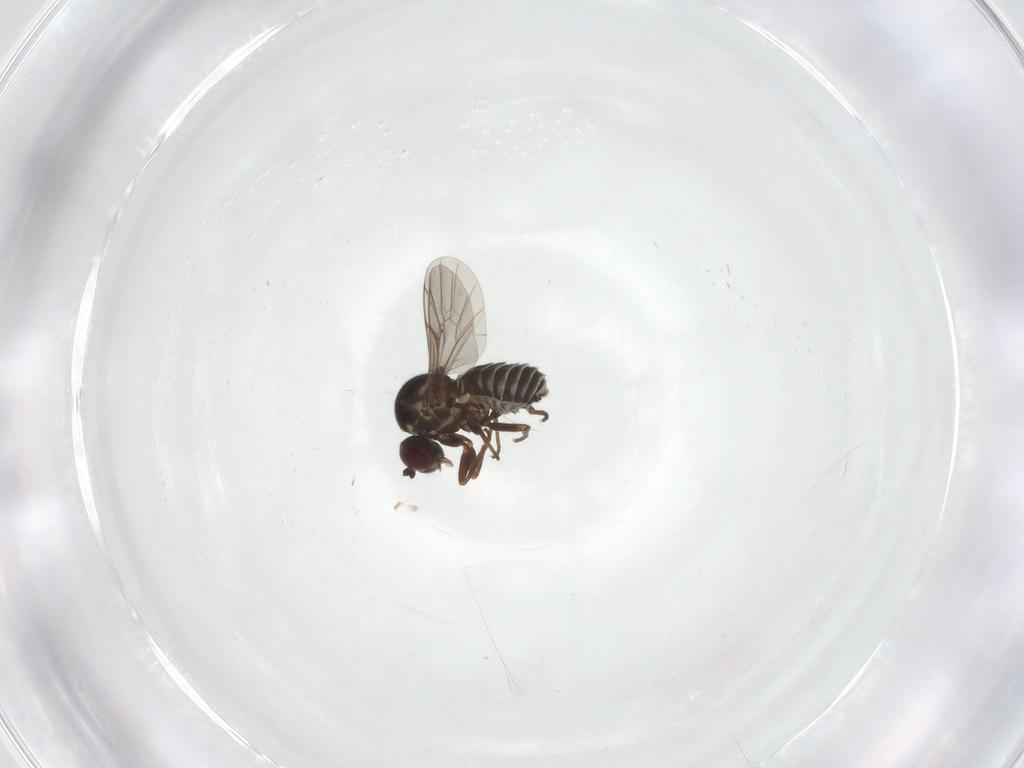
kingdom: Animalia
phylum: Arthropoda
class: Insecta
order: Diptera
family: Mythicomyiidae
